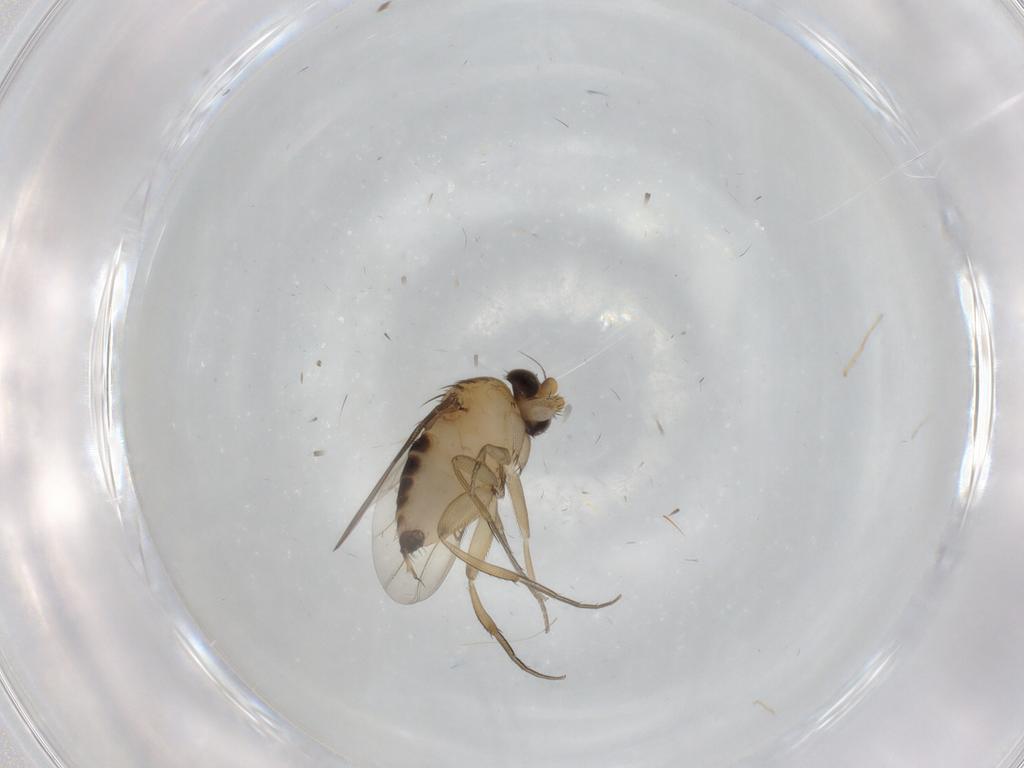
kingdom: Animalia
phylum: Arthropoda
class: Insecta
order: Diptera
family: Phoridae
